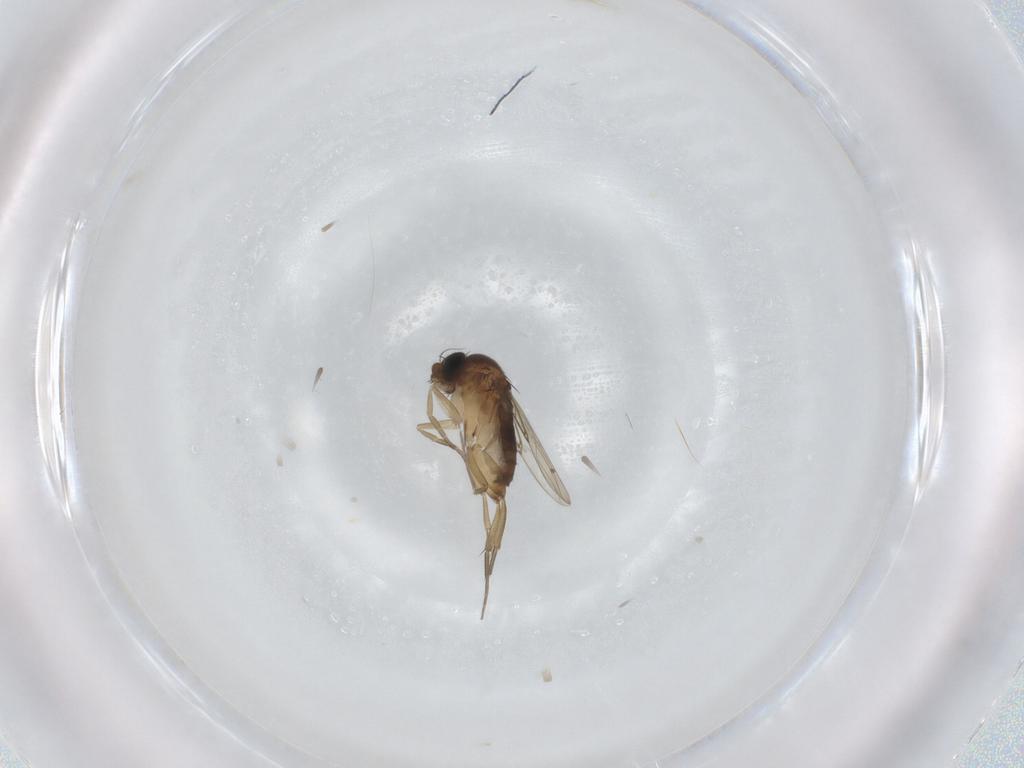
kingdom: Animalia
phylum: Arthropoda
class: Insecta
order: Diptera
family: Phoridae
